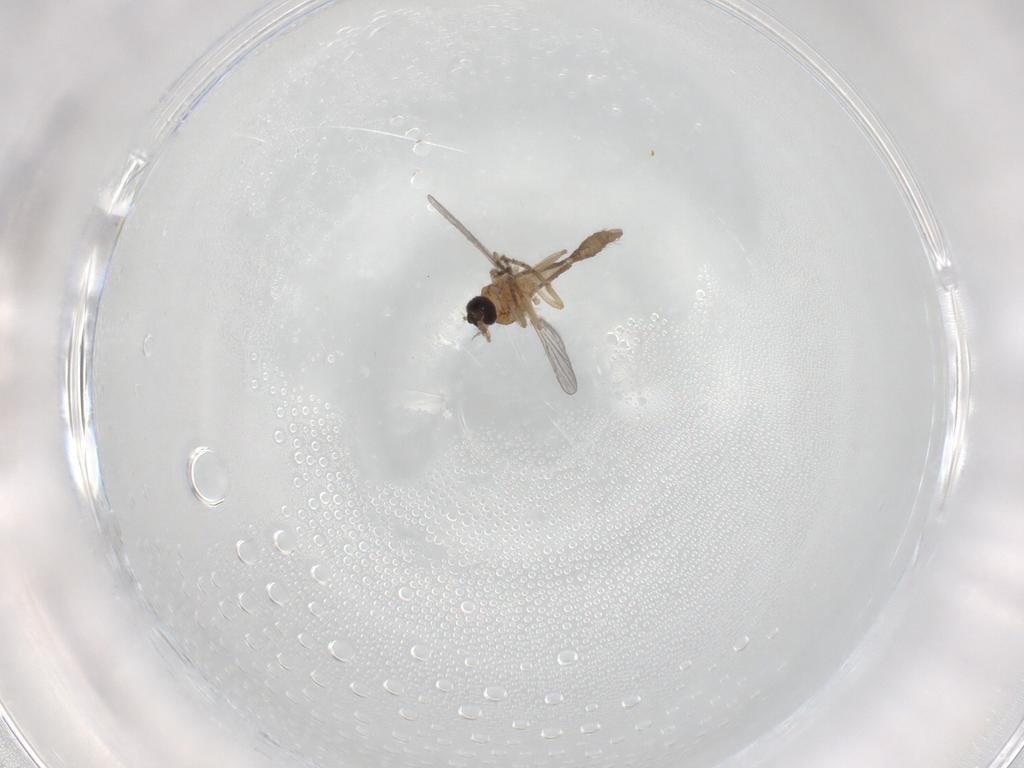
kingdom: Animalia
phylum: Arthropoda
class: Insecta
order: Diptera
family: Chironomidae
